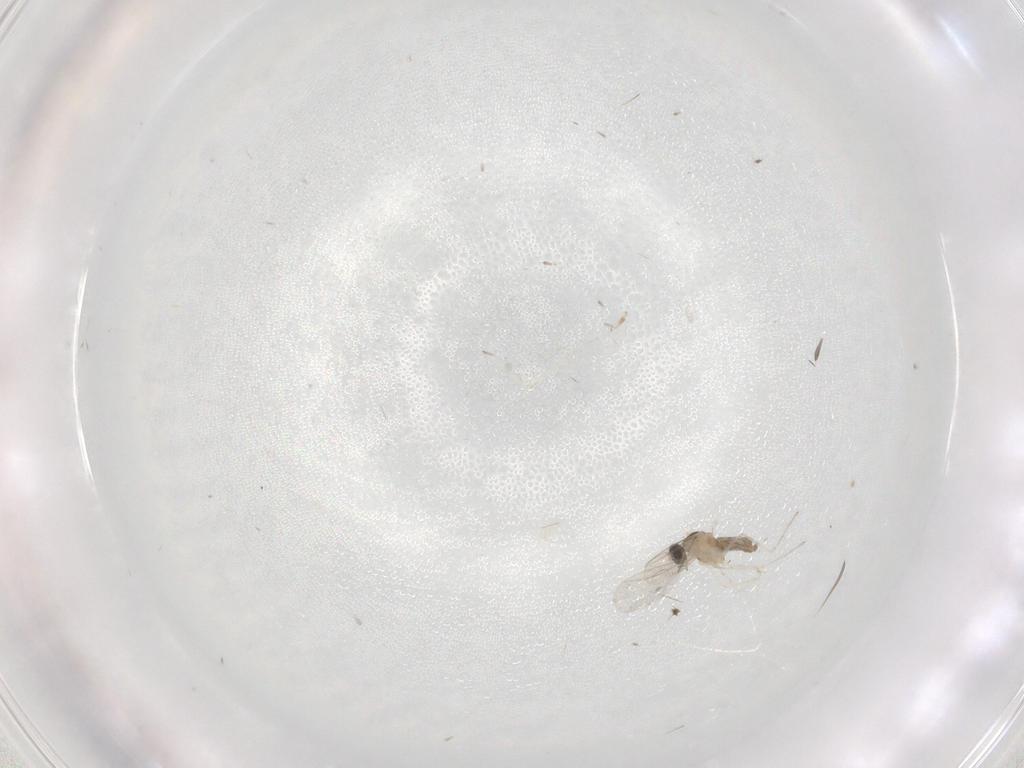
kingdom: Animalia
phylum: Arthropoda
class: Insecta
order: Diptera
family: Cecidomyiidae
